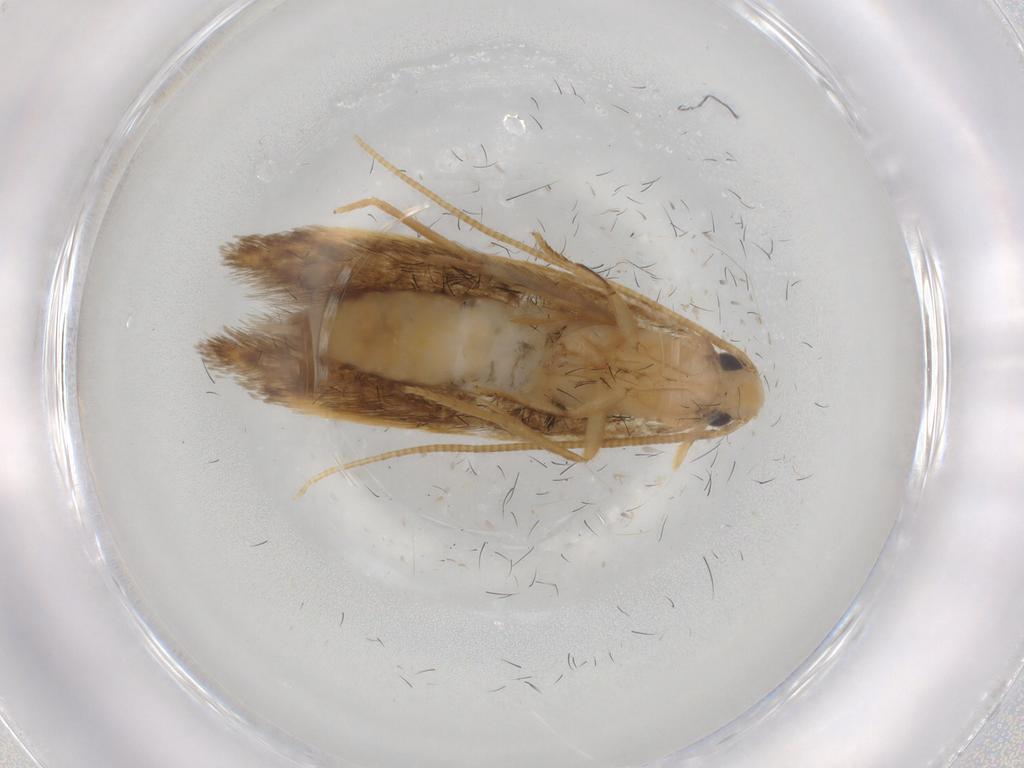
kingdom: Animalia
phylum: Arthropoda
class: Insecta
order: Lepidoptera
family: Tineidae
